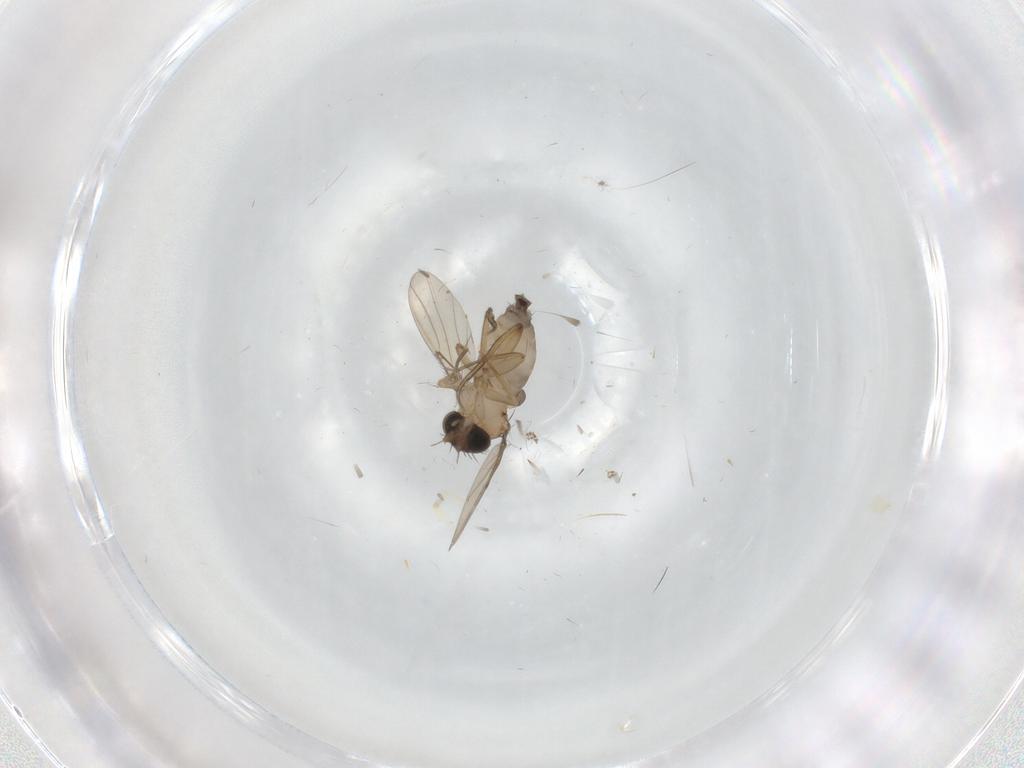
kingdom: Animalia
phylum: Arthropoda
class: Insecta
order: Diptera
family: Phoridae
